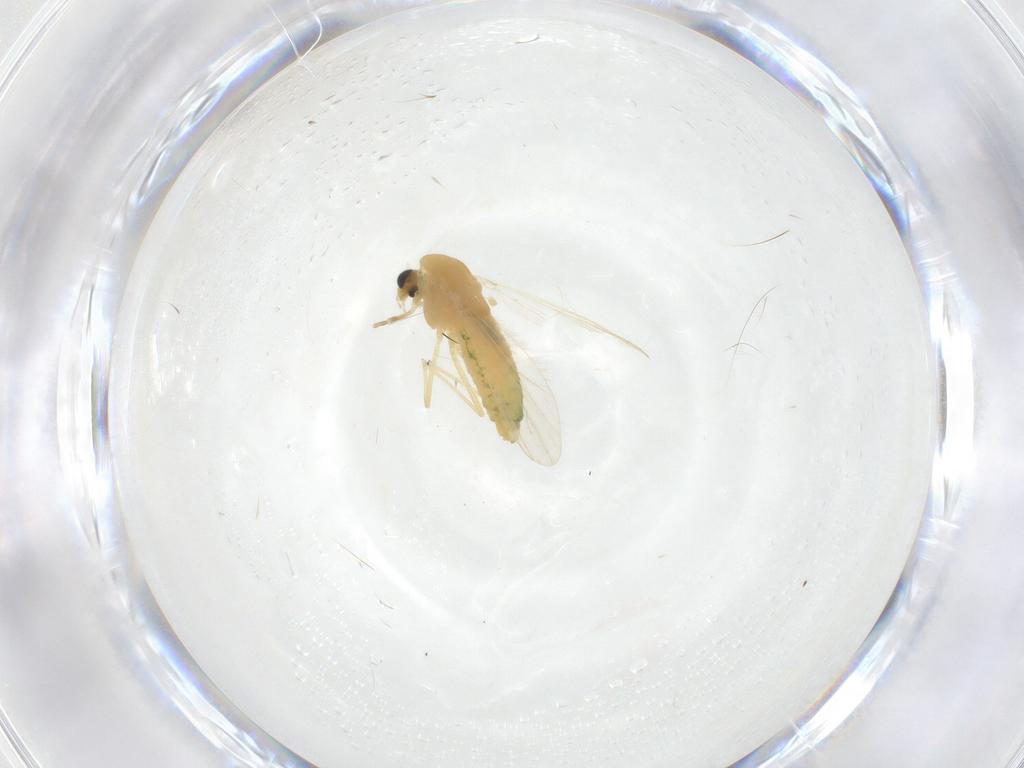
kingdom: Animalia
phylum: Arthropoda
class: Insecta
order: Diptera
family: Chironomidae
